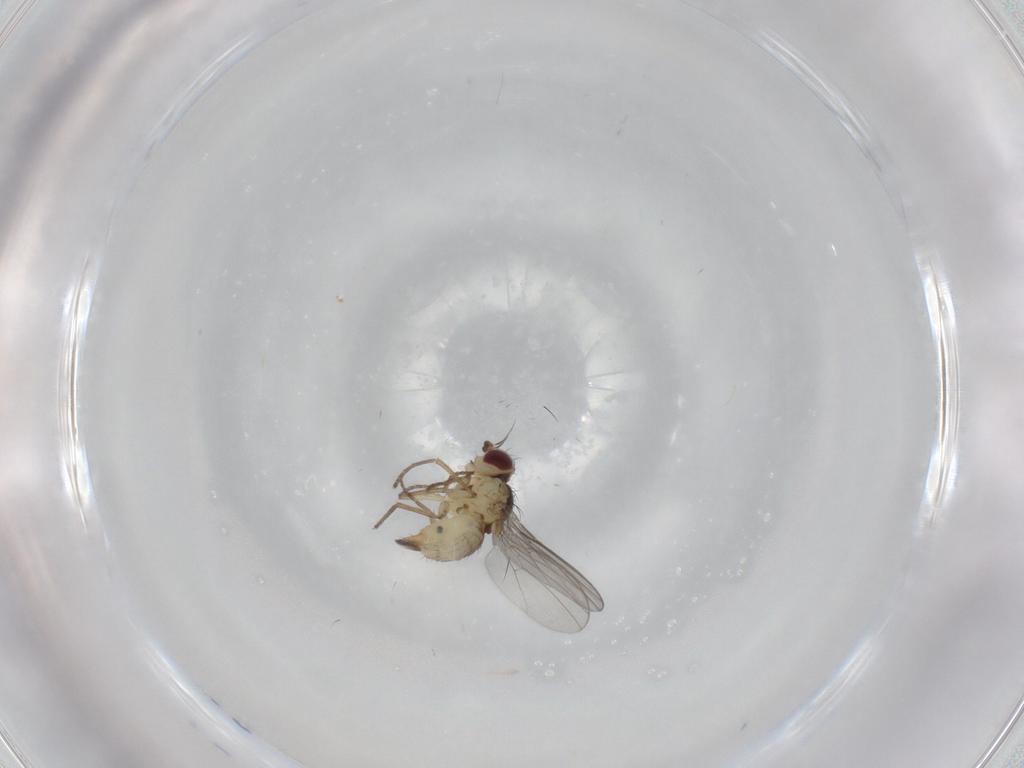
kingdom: Animalia
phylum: Arthropoda
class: Insecta
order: Diptera
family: Agromyzidae
